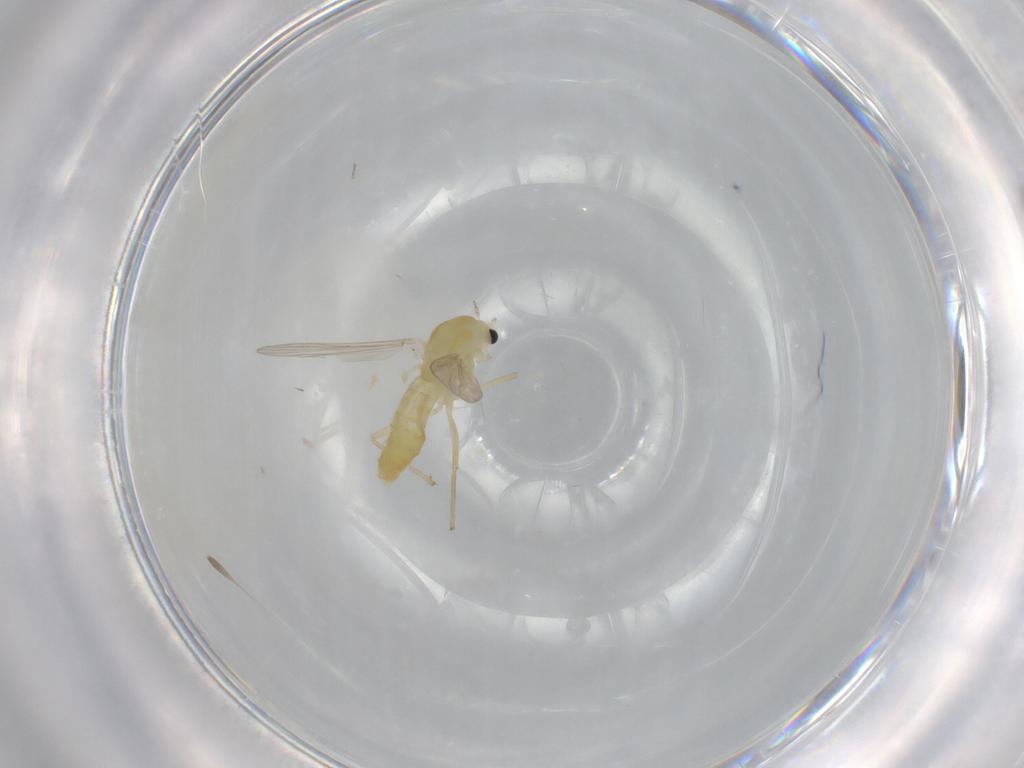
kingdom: Animalia
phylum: Arthropoda
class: Insecta
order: Diptera
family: Chironomidae
